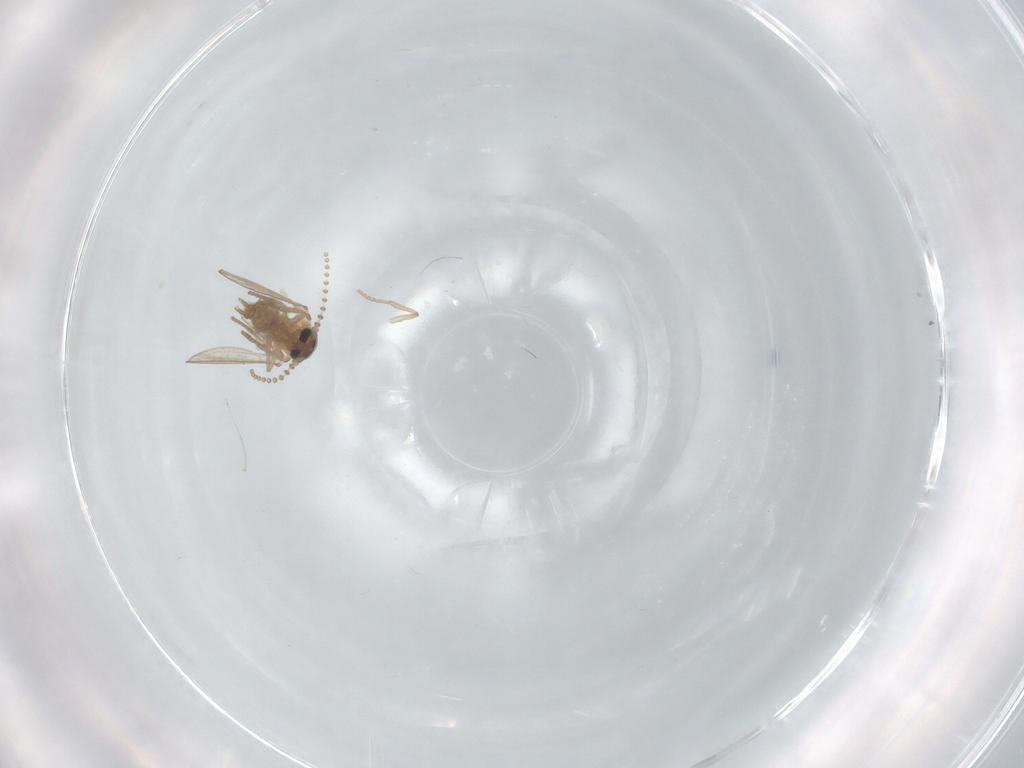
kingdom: Animalia
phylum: Arthropoda
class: Insecta
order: Diptera
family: Psychodidae
